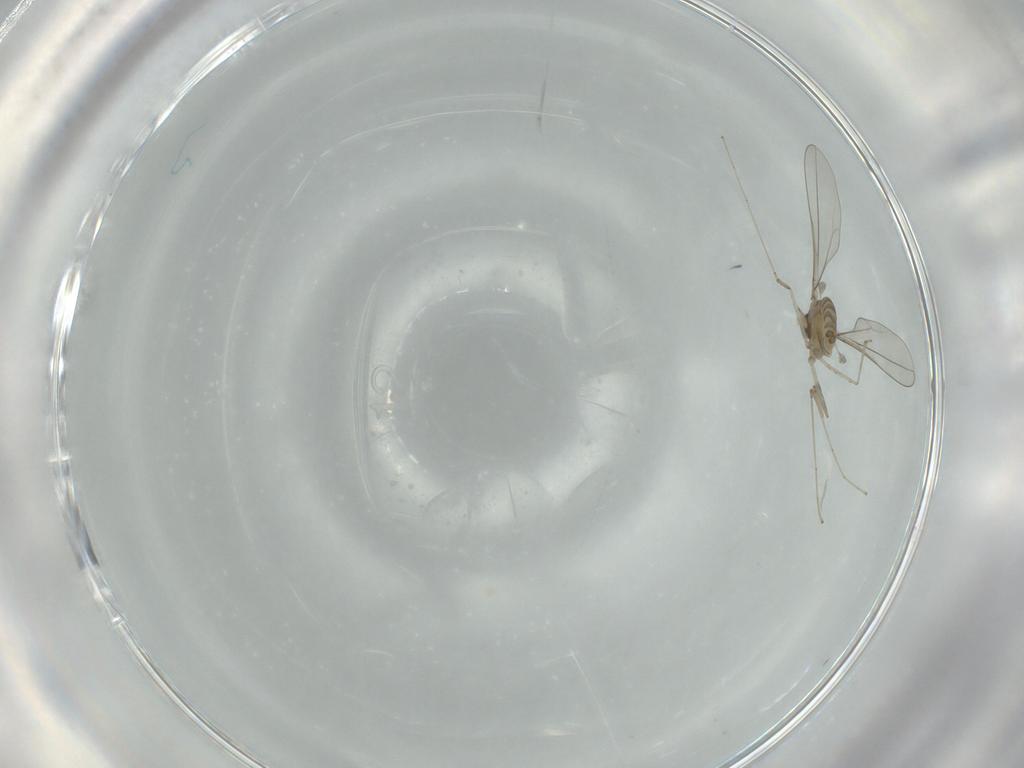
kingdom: Animalia
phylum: Arthropoda
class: Insecta
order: Diptera
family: Cecidomyiidae
